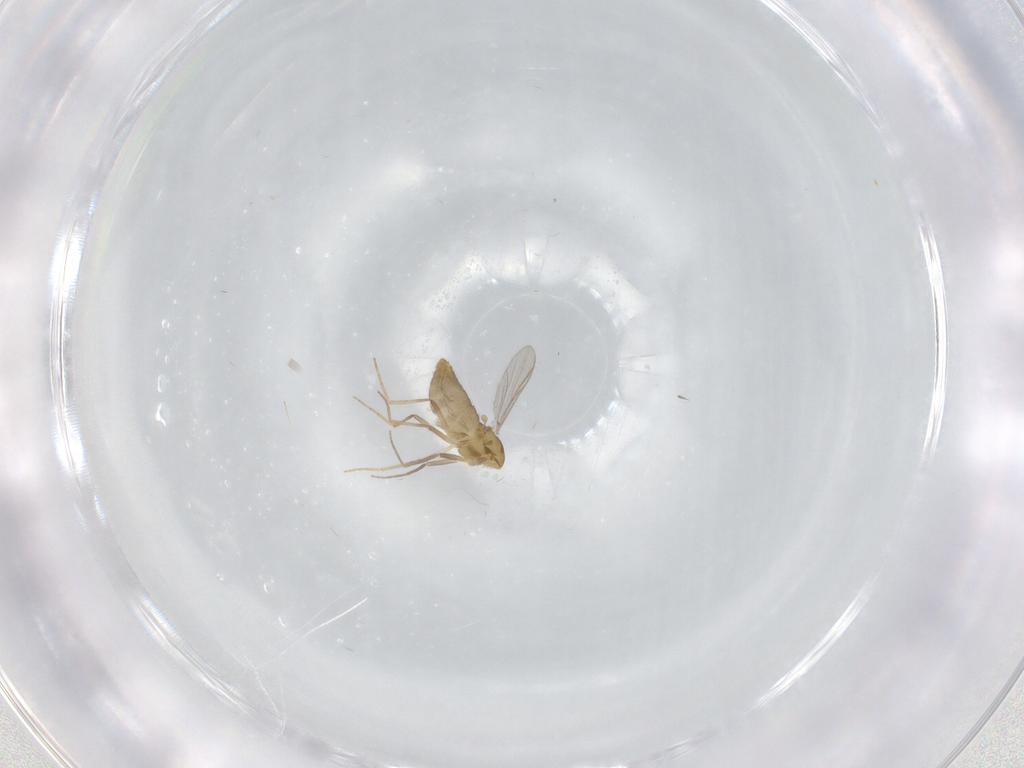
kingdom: Animalia
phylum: Arthropoda
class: Insecta
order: Diptera
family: Chironomidae
